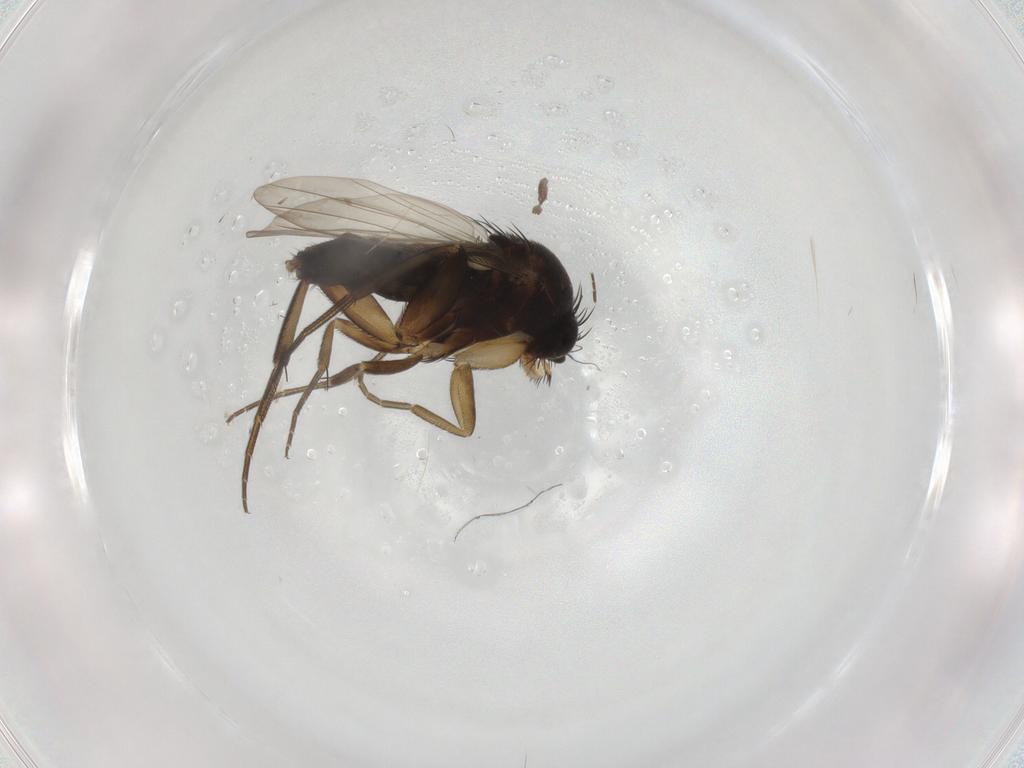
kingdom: Animalia
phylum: Arthropoda
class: Insecta
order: Diptera
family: Phoridae
